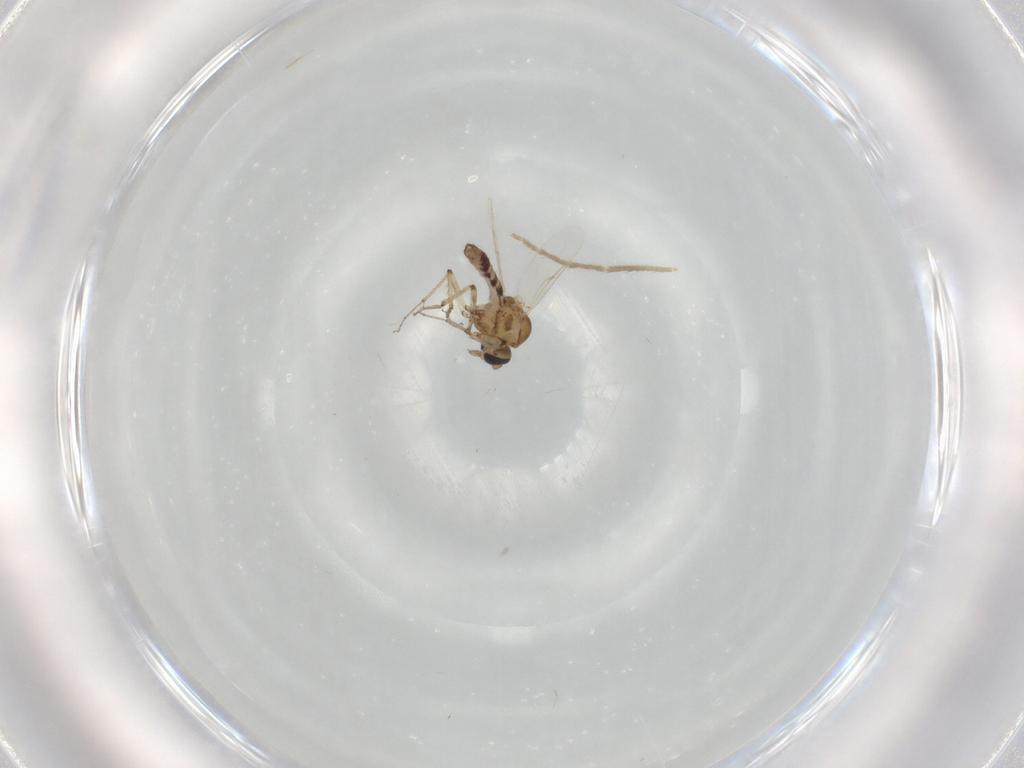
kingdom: Animalia
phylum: Arthropoda
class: Insecta
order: Diptera
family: Ceratopogonidae
